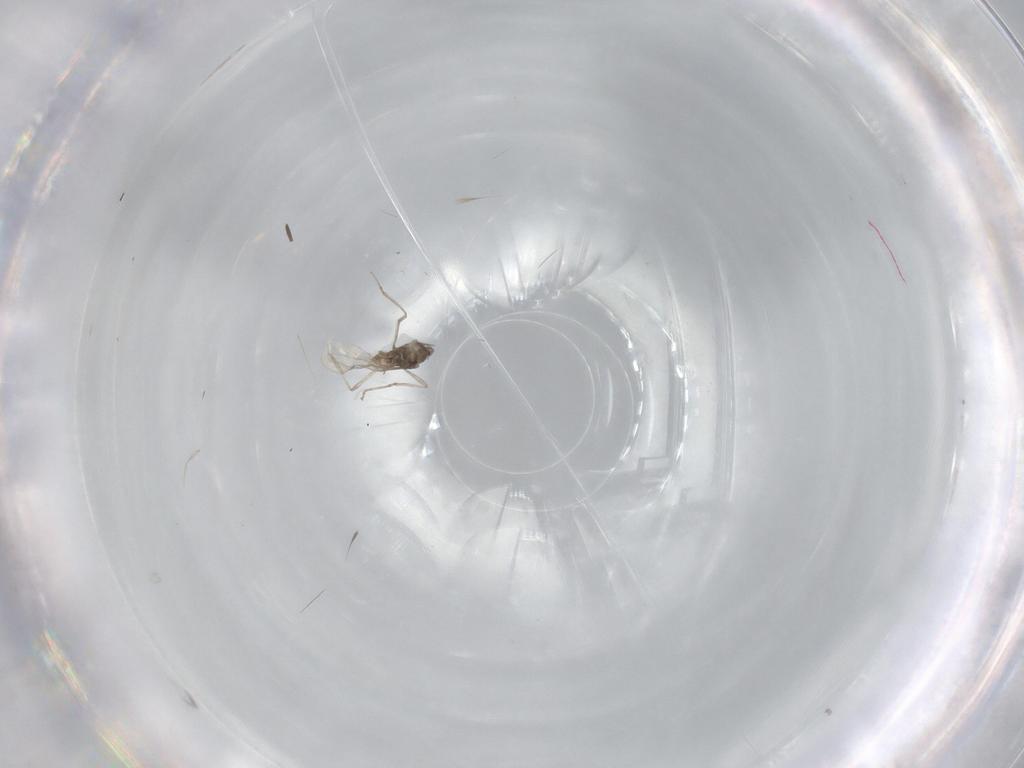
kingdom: Animalia
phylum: Arthropoda
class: Insecta
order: Diptera
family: Cecidomyiidae
